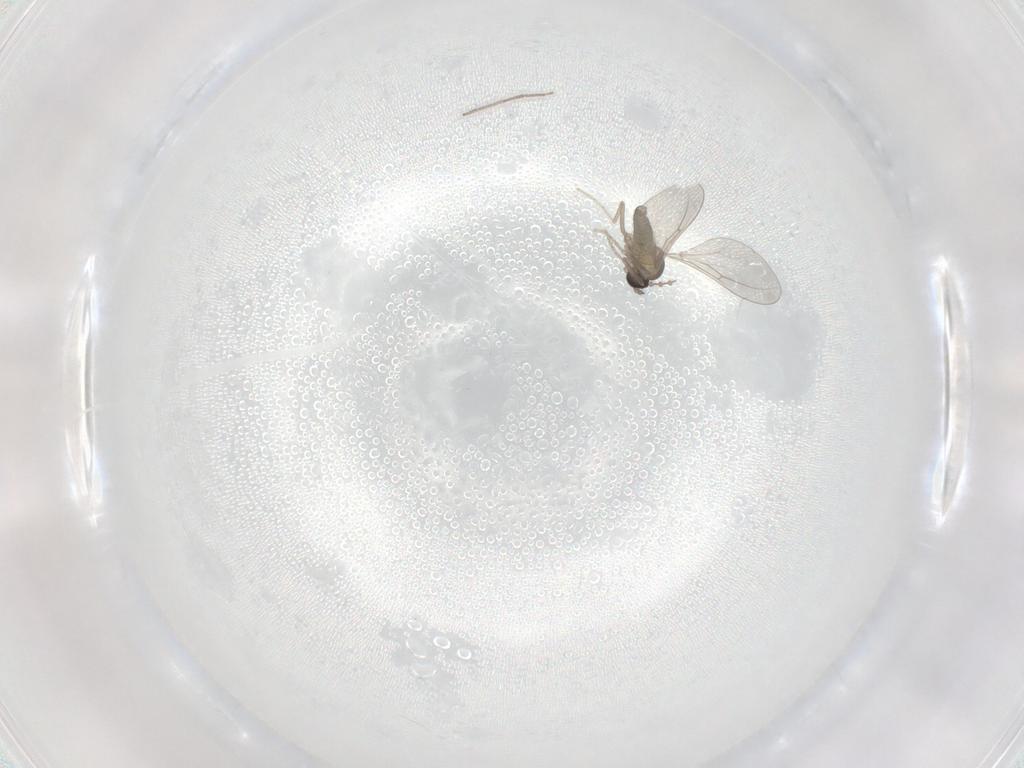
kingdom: Animalia
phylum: Arthropoda
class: Insecta
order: Diptera
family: Cecidomyiidae
